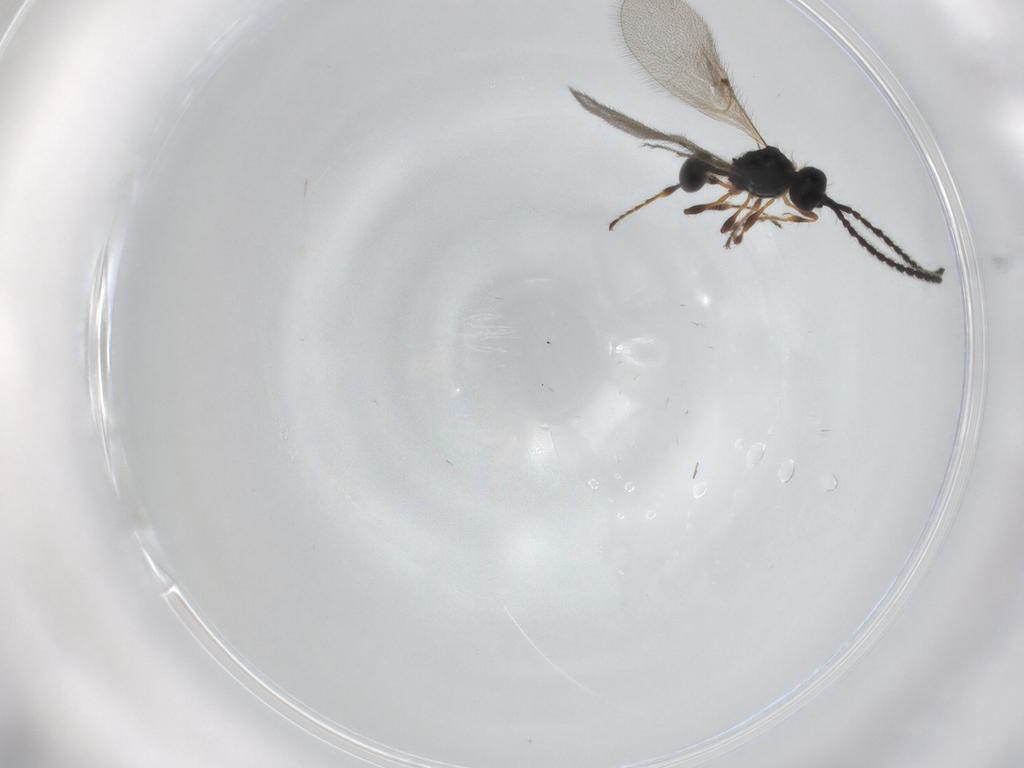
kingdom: Animalia
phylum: Arthropoda
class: Insecta
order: Hymenoptera
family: Diapriidae
